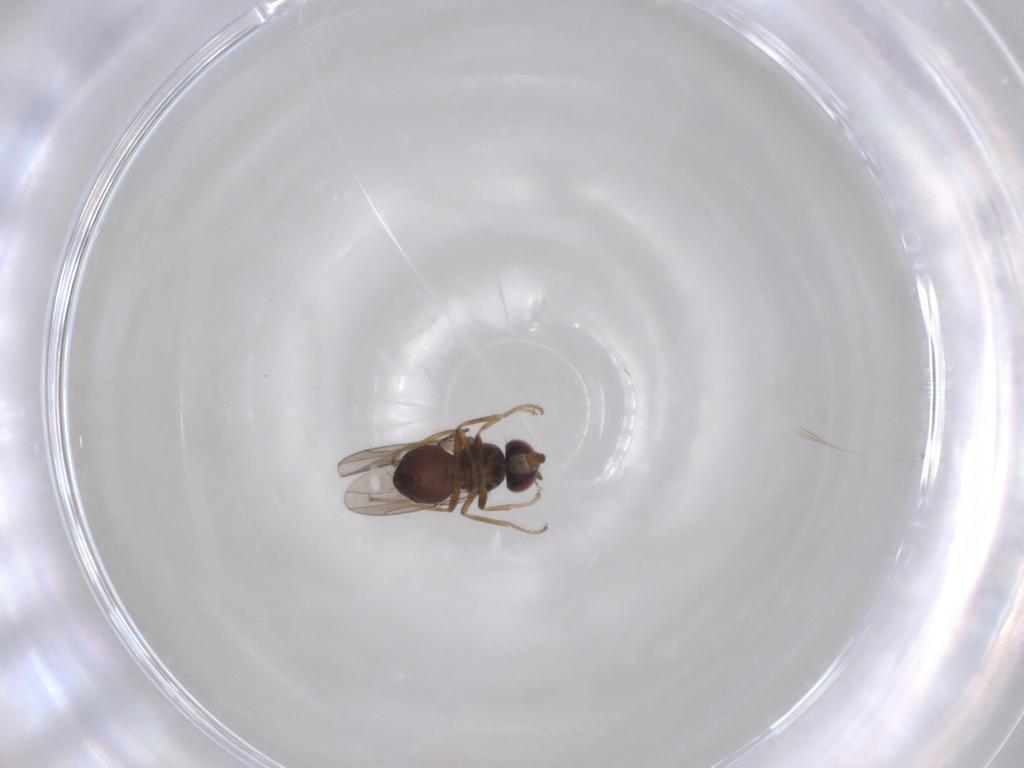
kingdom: Animalia
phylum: Arthropoda
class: Insecta
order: Diptera
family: Ephydridae
